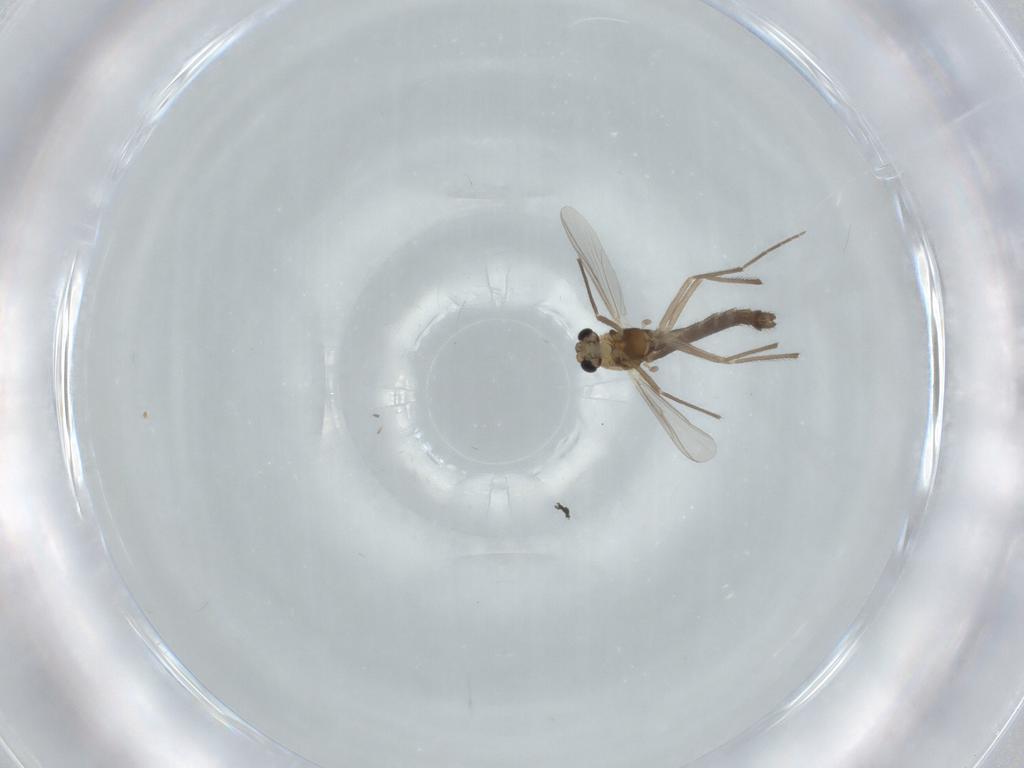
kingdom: Animalia
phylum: Arthropoda
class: Insecta
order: Diptera
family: Chironomidae
